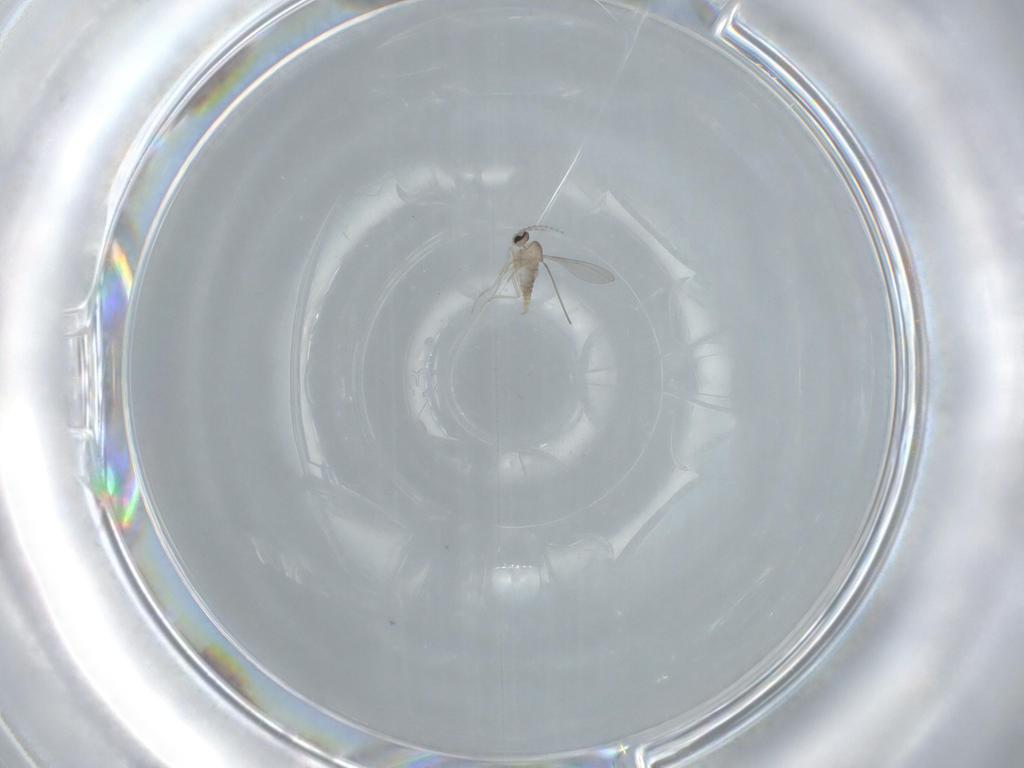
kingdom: Animalia
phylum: Arthropoda
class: Insecta
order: Diptera
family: Cecidomyiidae
